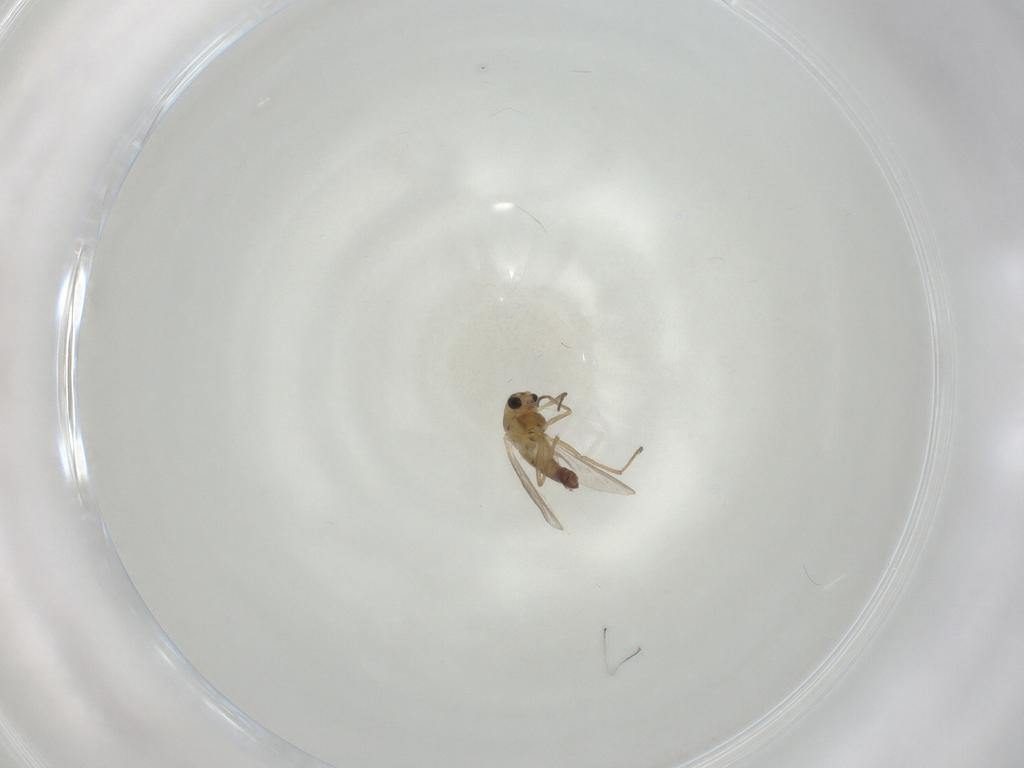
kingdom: Animalia
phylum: Arthropoda
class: Insecta
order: Diptera
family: Chironomidae
